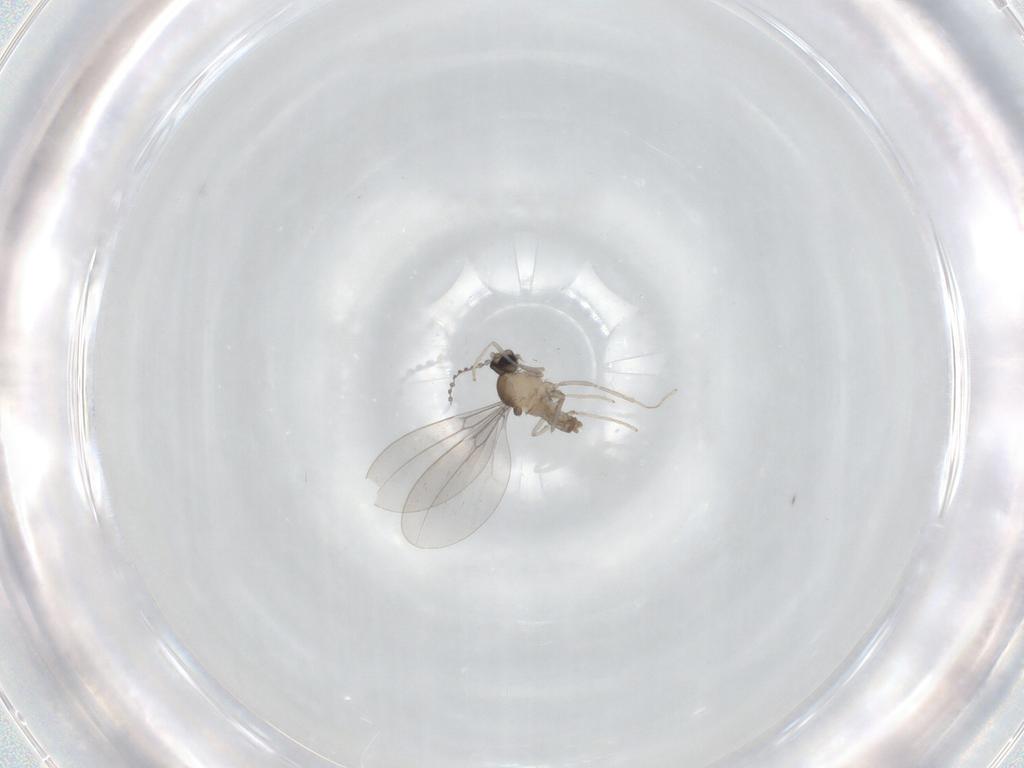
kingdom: Animalia
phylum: Arthropoda
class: Insecta
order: Diptera
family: Cecidomyiidae
